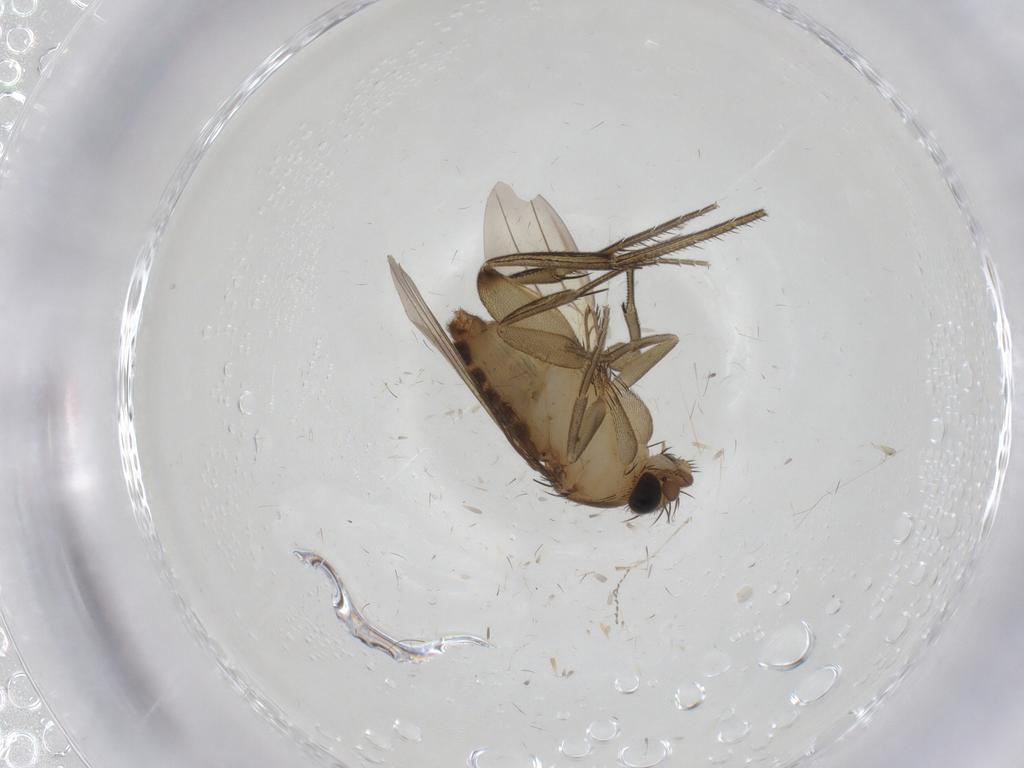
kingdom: Animalia
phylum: Arthropoda
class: Insecta
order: Diptera
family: Phoridae
